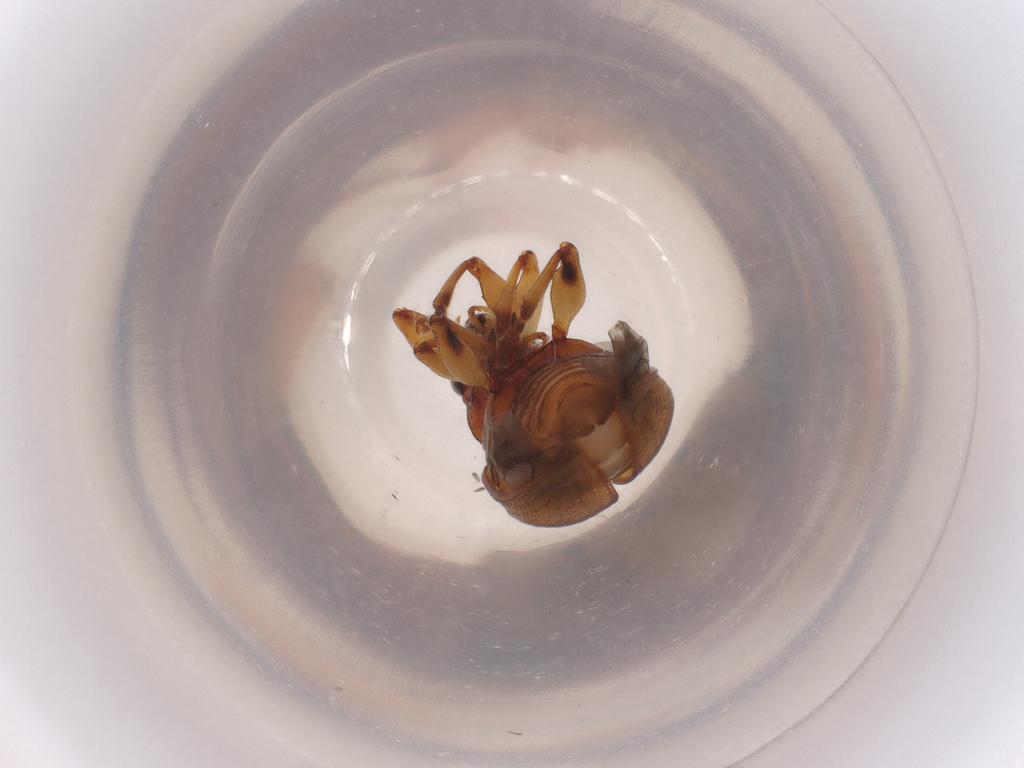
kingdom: Animalia
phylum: Arthropoda
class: Insecta
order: Coleoptera
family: Chrysomelidae
